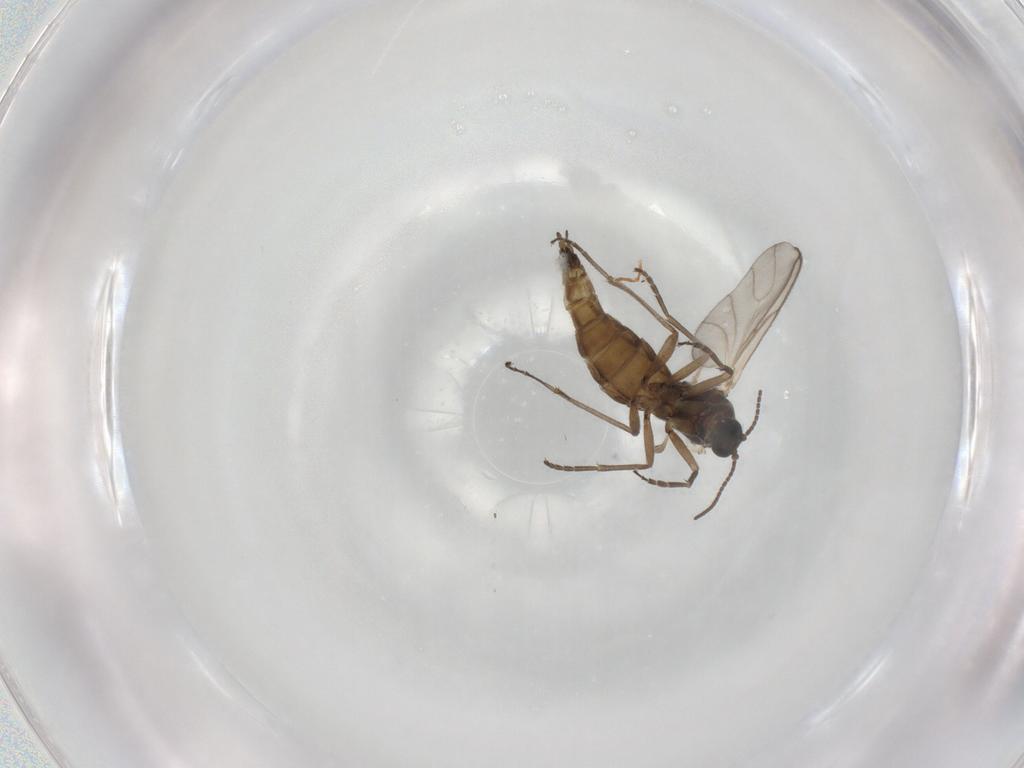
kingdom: Animalia
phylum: Arthropoda
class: Insecta
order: Diptera
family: Sciaridae
